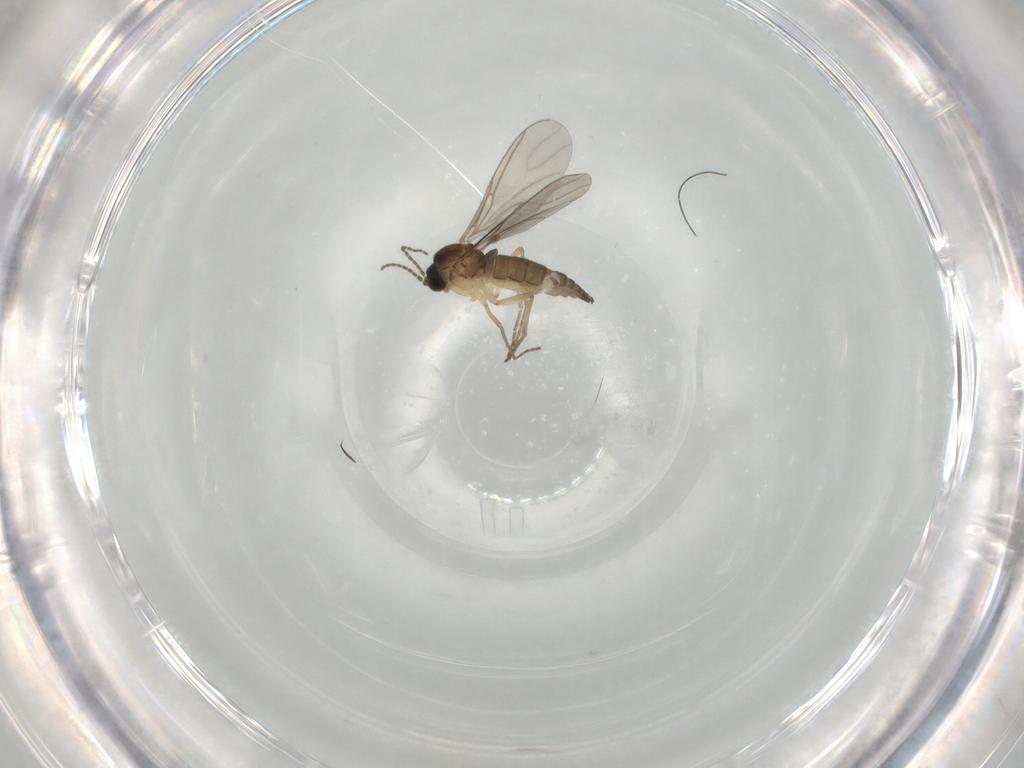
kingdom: Animalia
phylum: Arthropoda
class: Insecta
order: Diptera
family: Sciaridae
